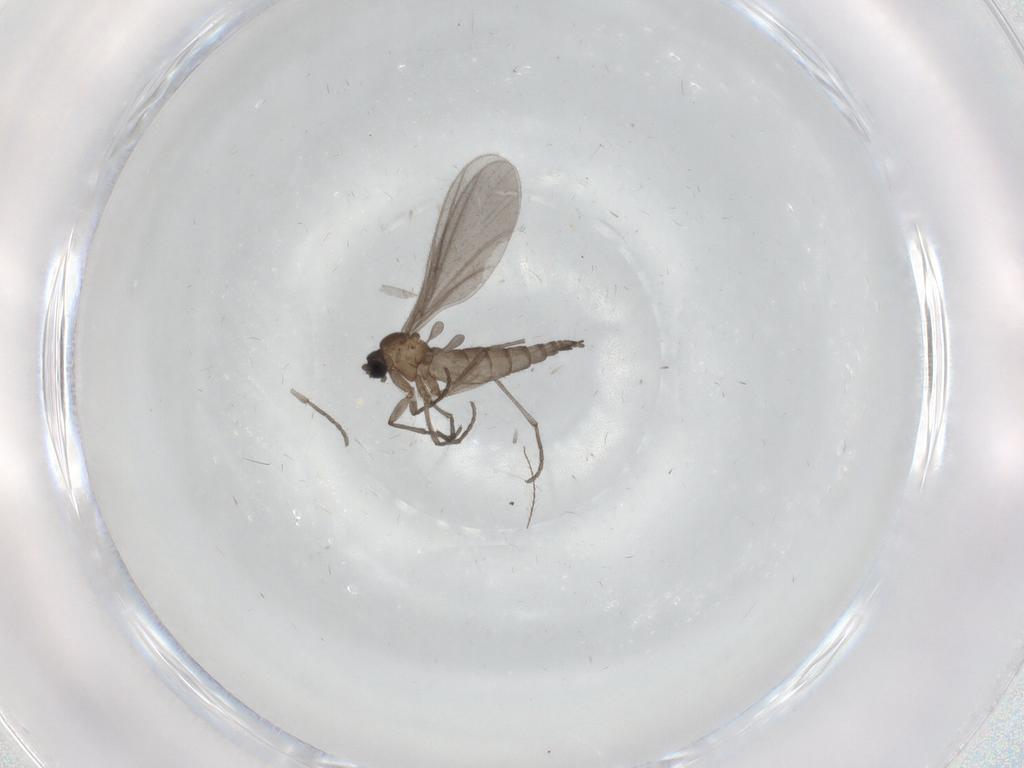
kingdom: Animalia
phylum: Arthropoda
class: Insecta
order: Diptera
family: Sciaridae
